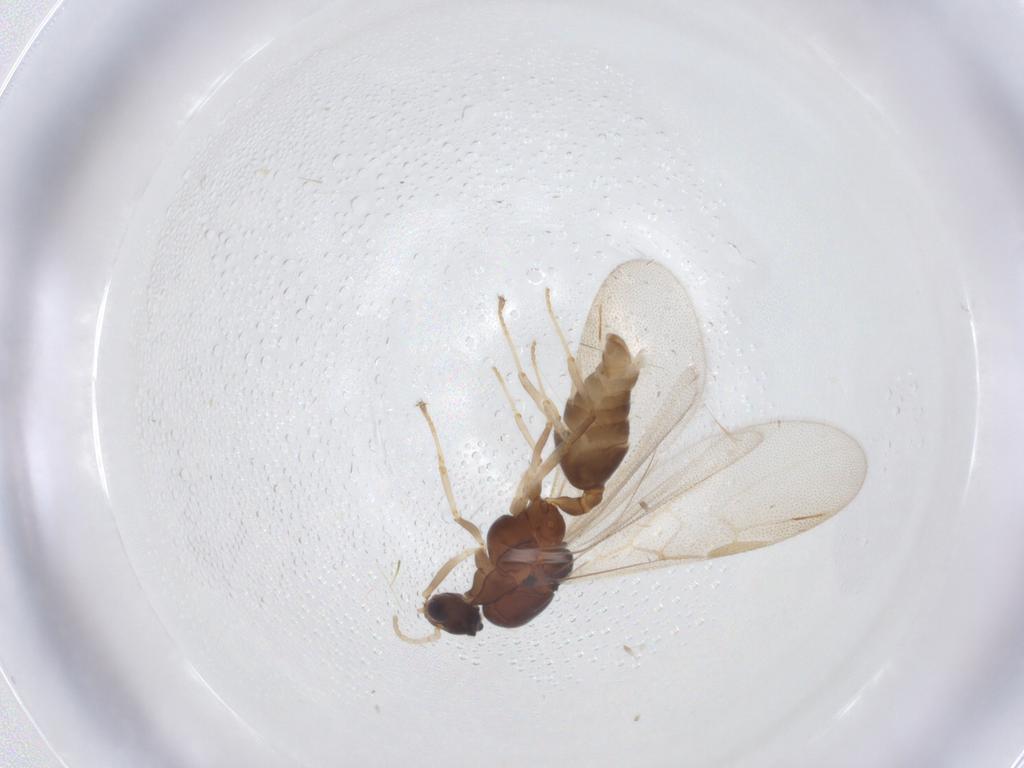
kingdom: Animalia
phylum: Arthropoda
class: Insecta
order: Hymenoptera
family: Formicidae
